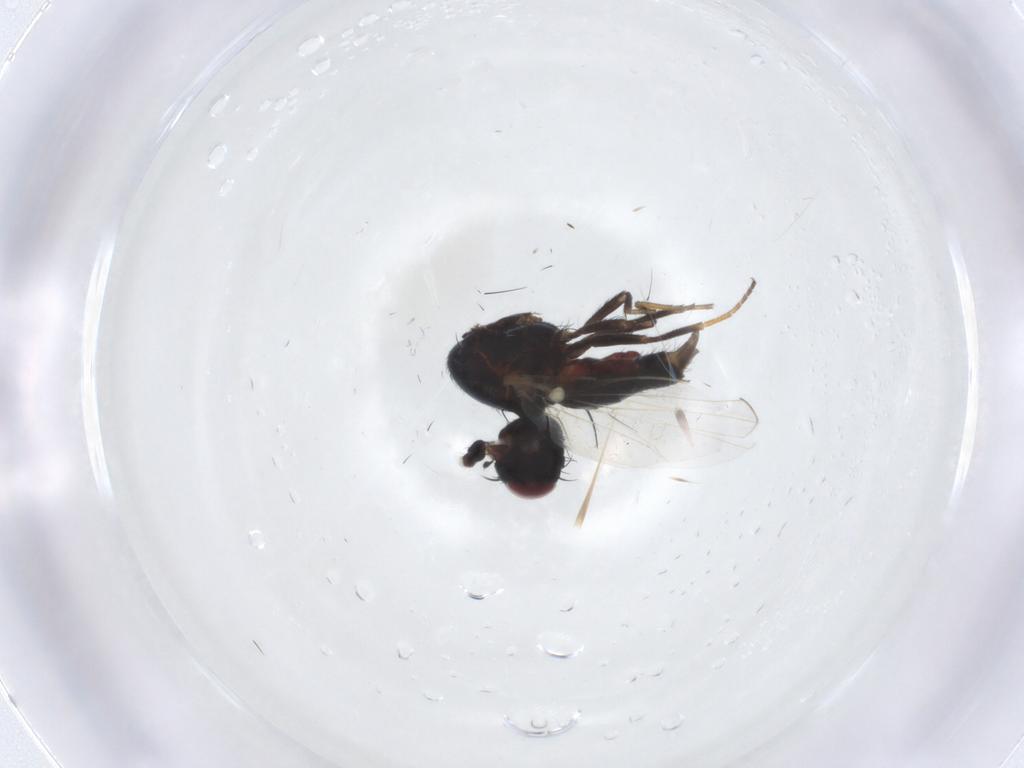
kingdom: Animalia
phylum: Arthropoda
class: Insecta
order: Diptera
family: Carnidae
